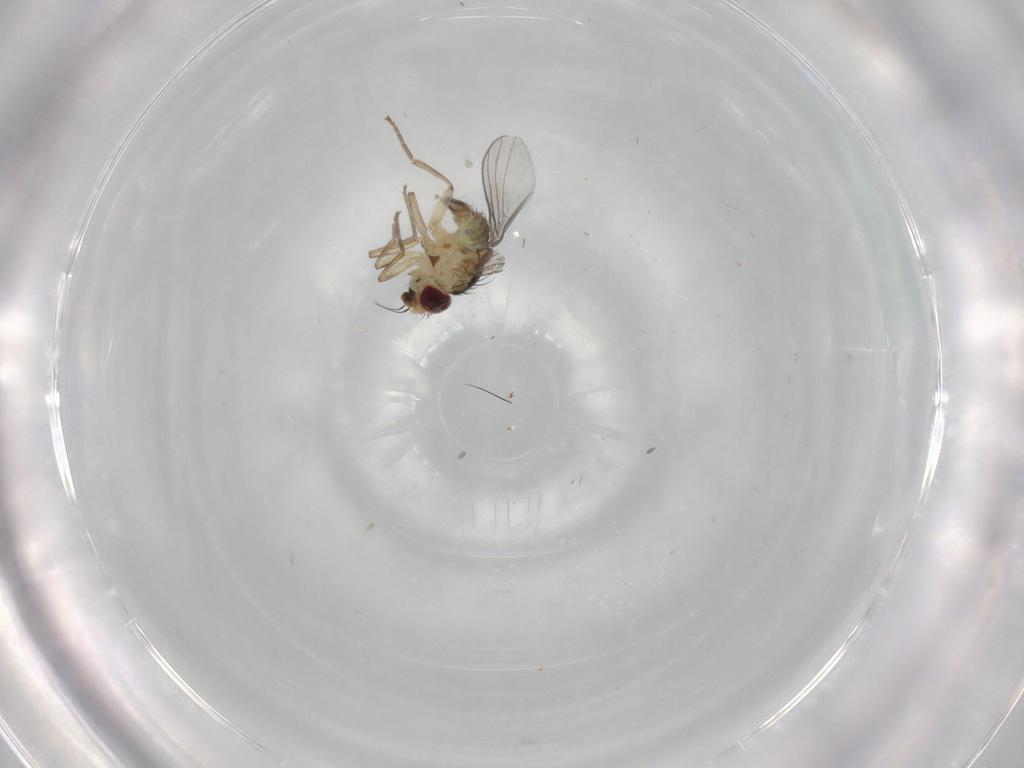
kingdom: Animalia
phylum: Arthropoda
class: Insecta
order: Diptera
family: Agromyzidae
